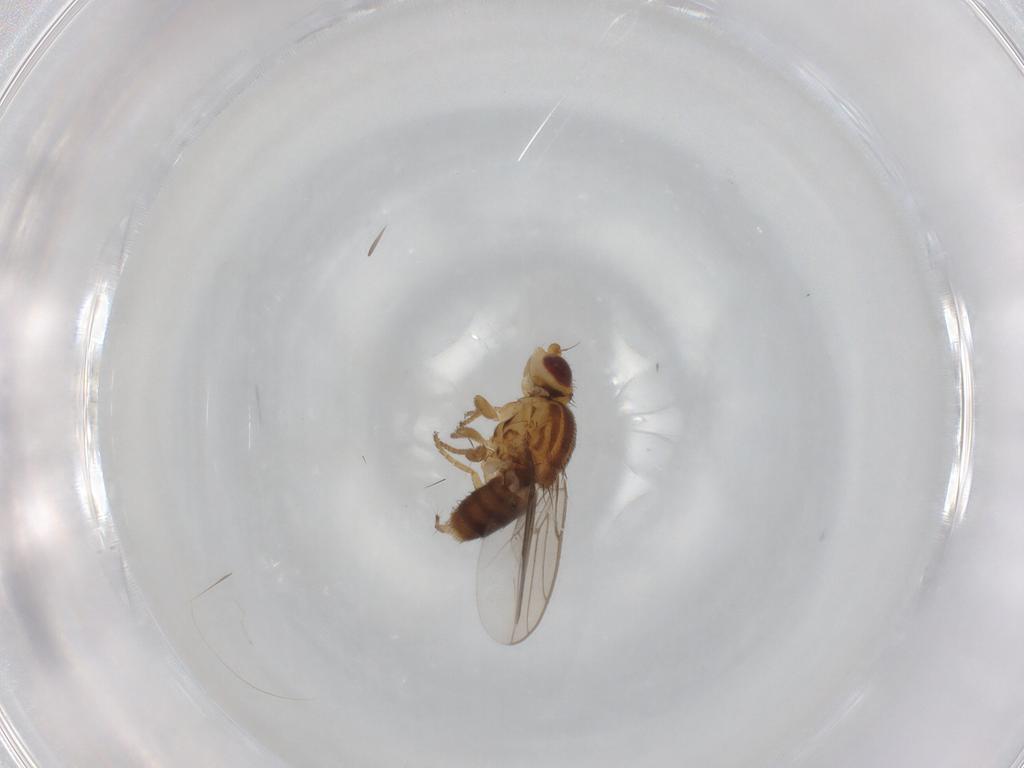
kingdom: Animalia
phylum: Arthropoda
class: Insecta
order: Diptera
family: Chloropidae
